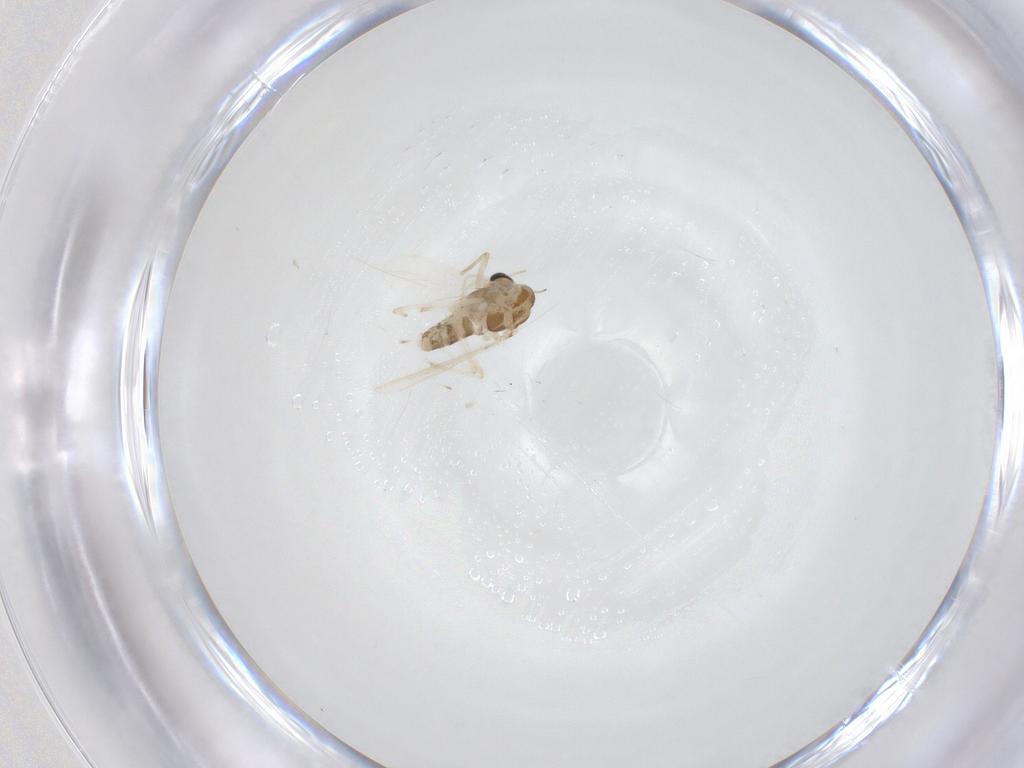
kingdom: Animalia
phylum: Arthropoda
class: Insecta
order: Diptera
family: Chironomidae
